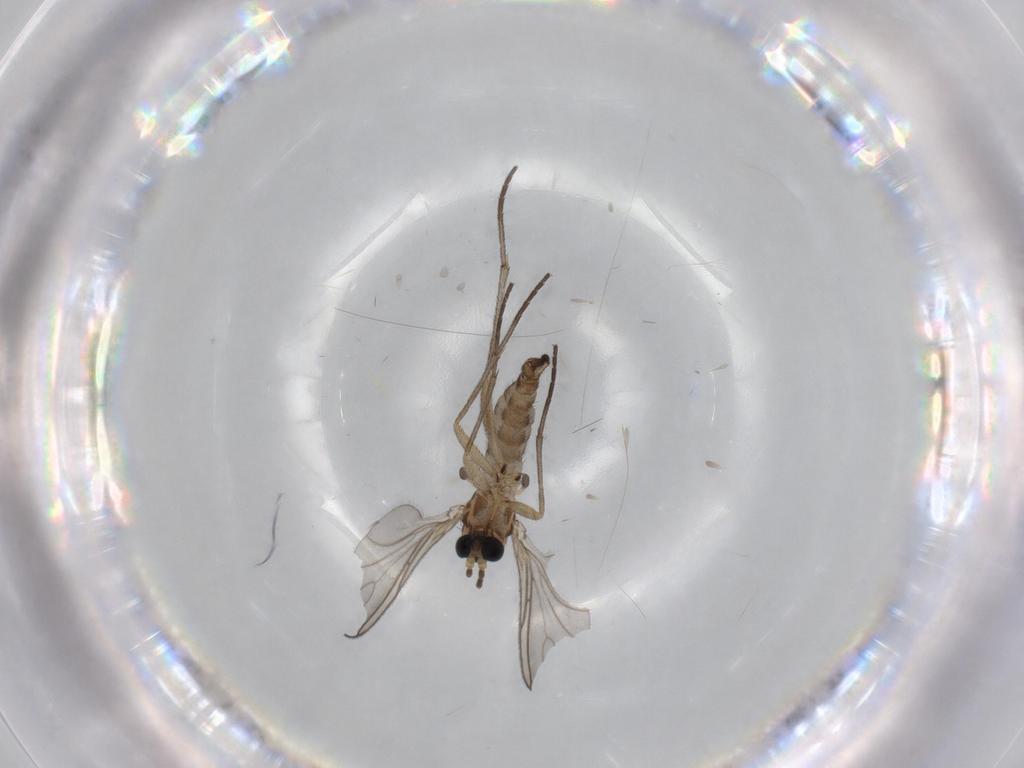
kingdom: Animalia
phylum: Arthropoda
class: Insecta
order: Diptera
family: Sciaridae
